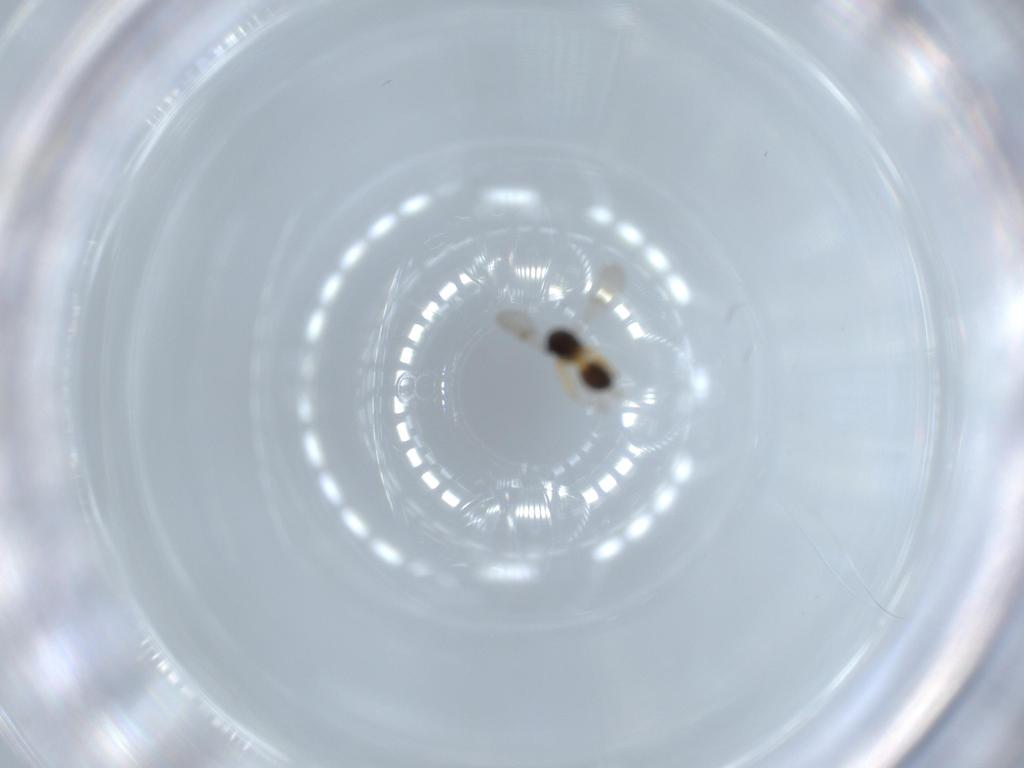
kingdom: Animalia
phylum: Arthropoda
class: Insecta
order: Hymenoptera
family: Scelionidae
